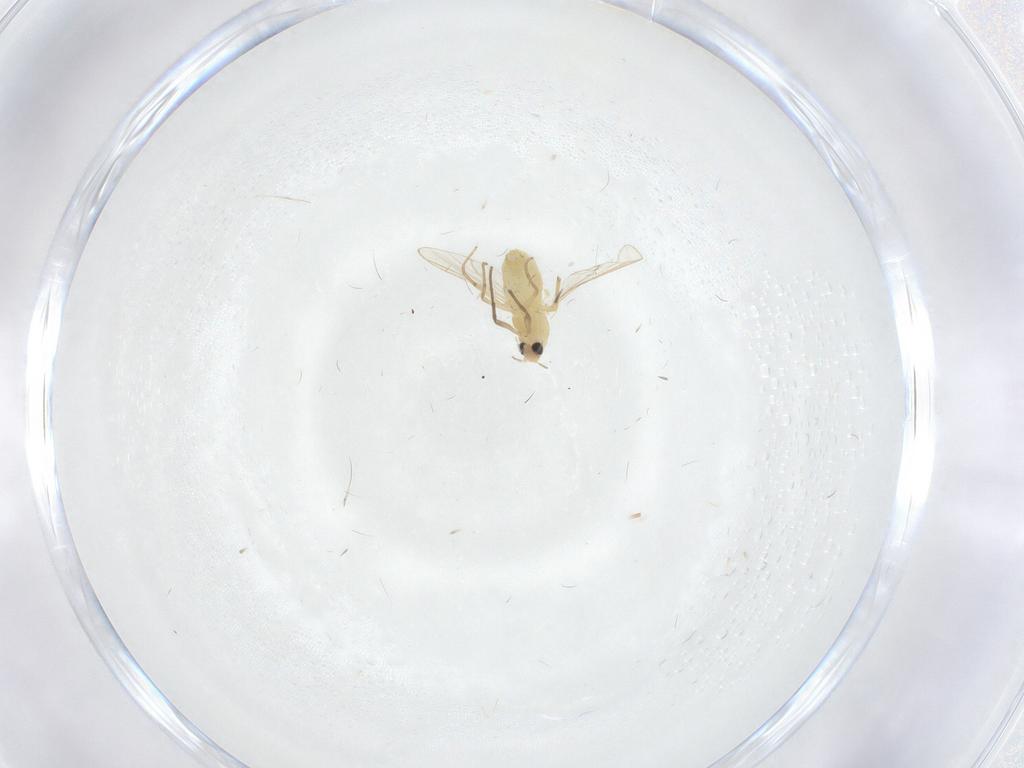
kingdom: Animalia
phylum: Arthropoda
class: Insecta
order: Diptera
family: Chironomidae
